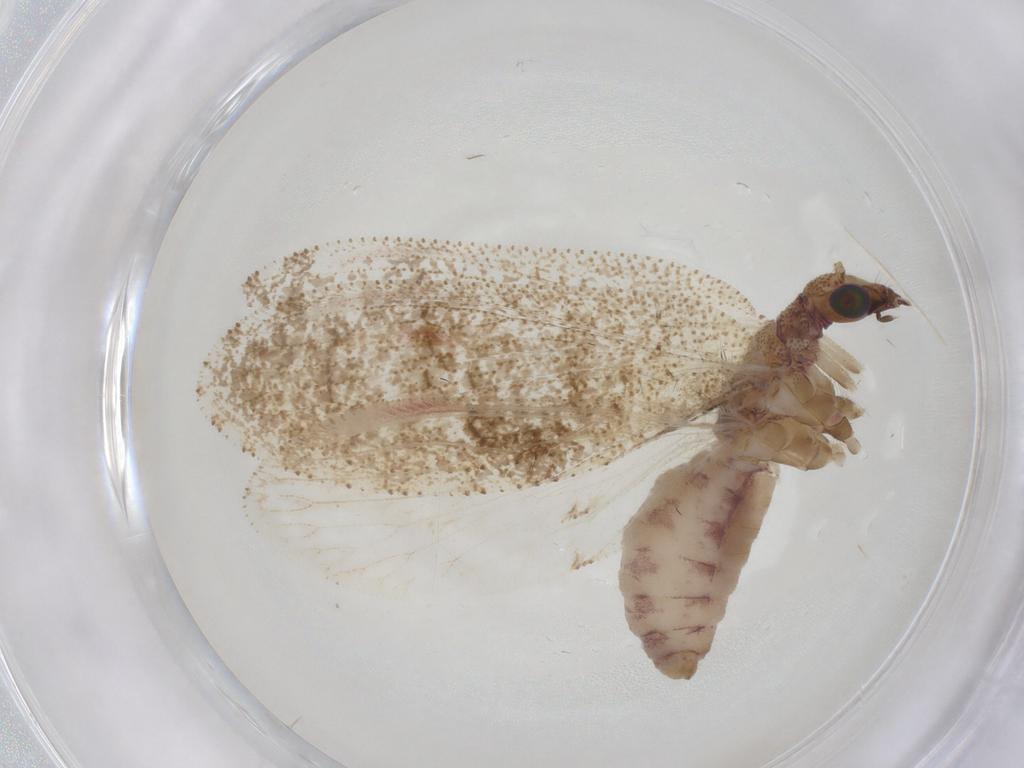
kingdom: Animalia
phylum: Arthropoda
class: Insecta
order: Neuroptera
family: Hemerobiidae
